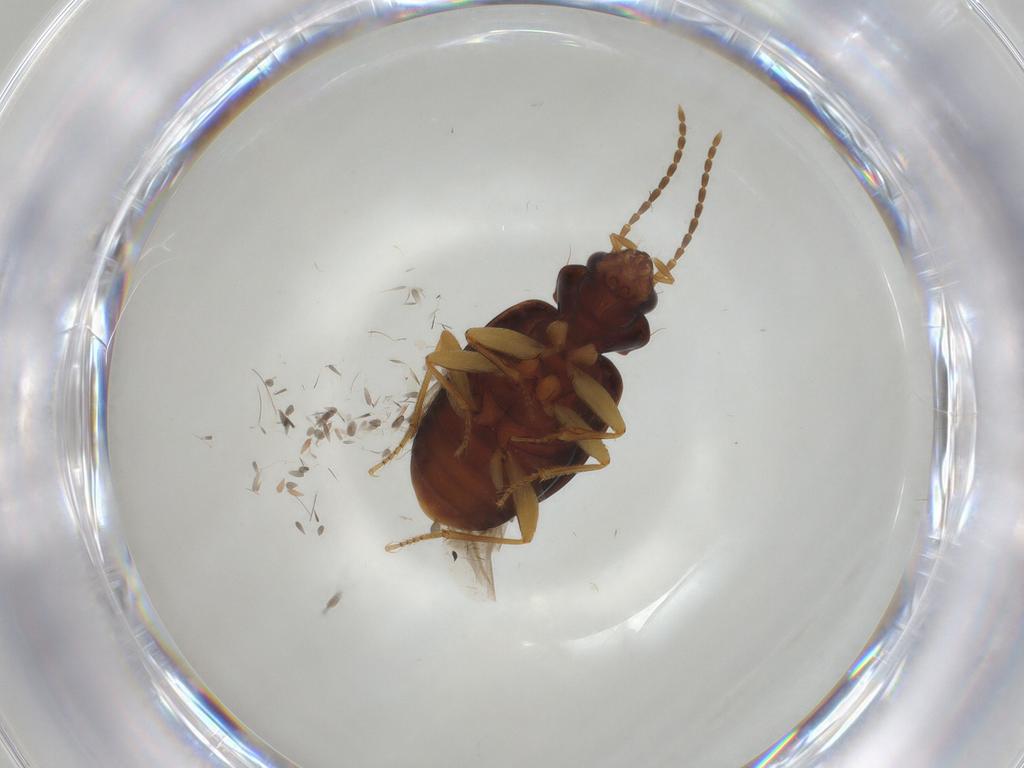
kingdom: Animalia
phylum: Arthropoda
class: Insecta
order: Coleoptera
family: Carabidae
